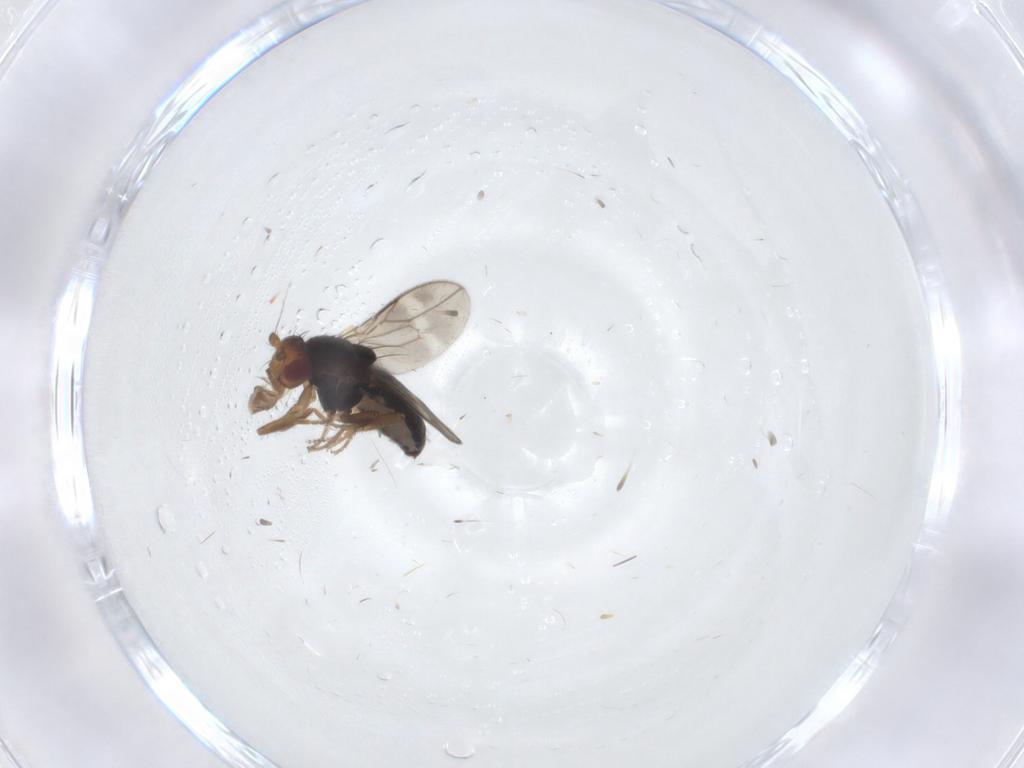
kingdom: Animalia
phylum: Arthropoda
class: Insecta
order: Diptera
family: Sphaeroceridae
